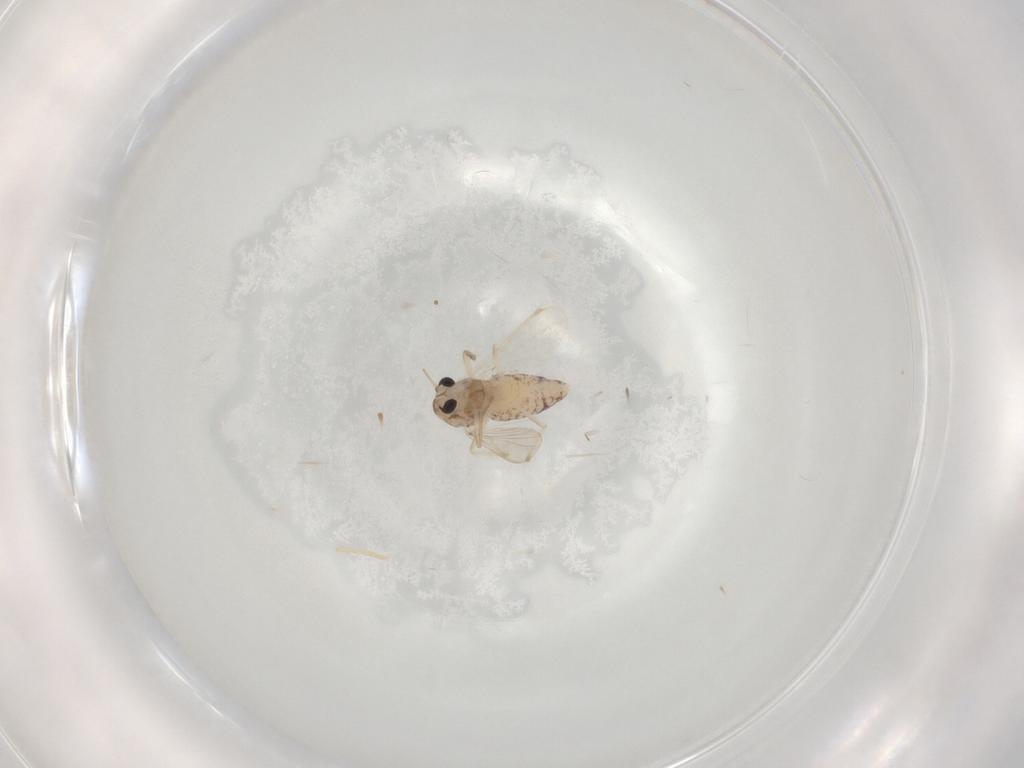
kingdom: Animalia
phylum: Arthropoda
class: Insecta
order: Diptera
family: Chironomidae
